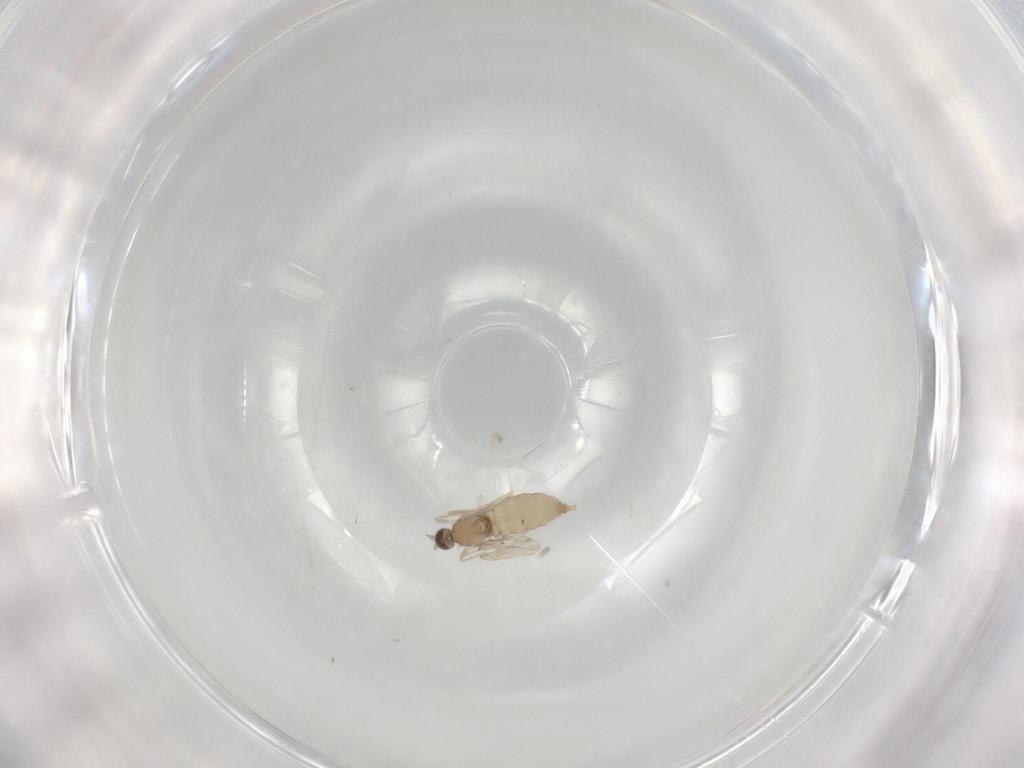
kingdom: Animalia
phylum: Arthropoda
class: Insecta
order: Diptera
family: Cecidomyiidae
